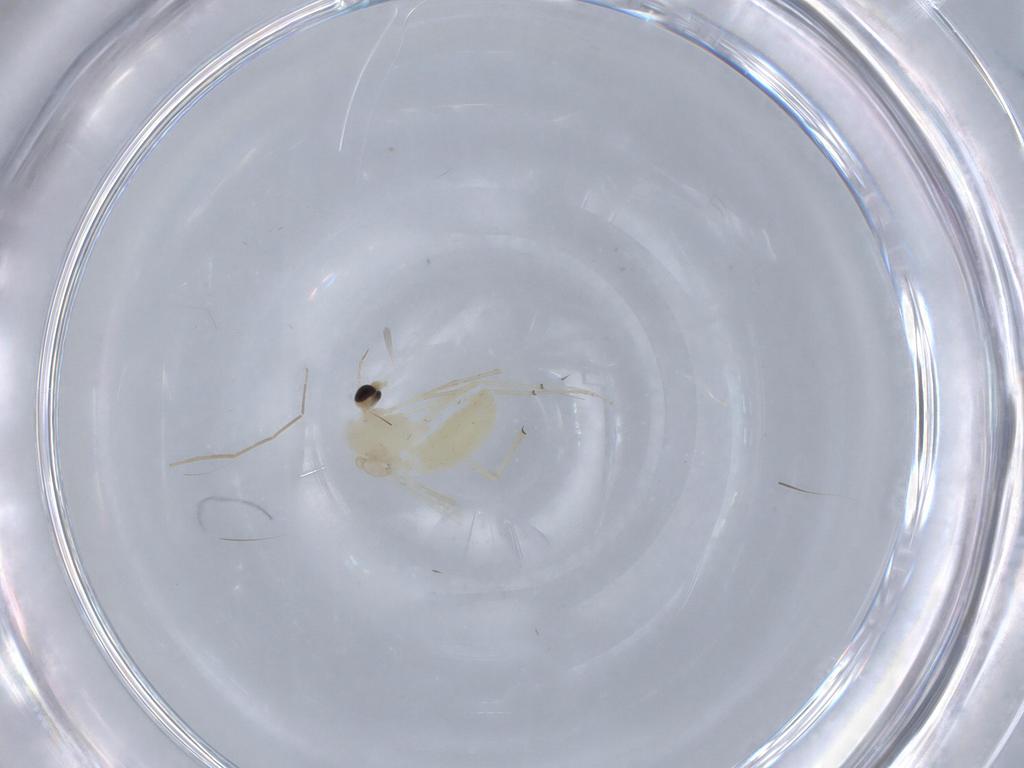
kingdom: Animalia
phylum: Arthropoda
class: Insecta
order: Diptera
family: Chironomidae
